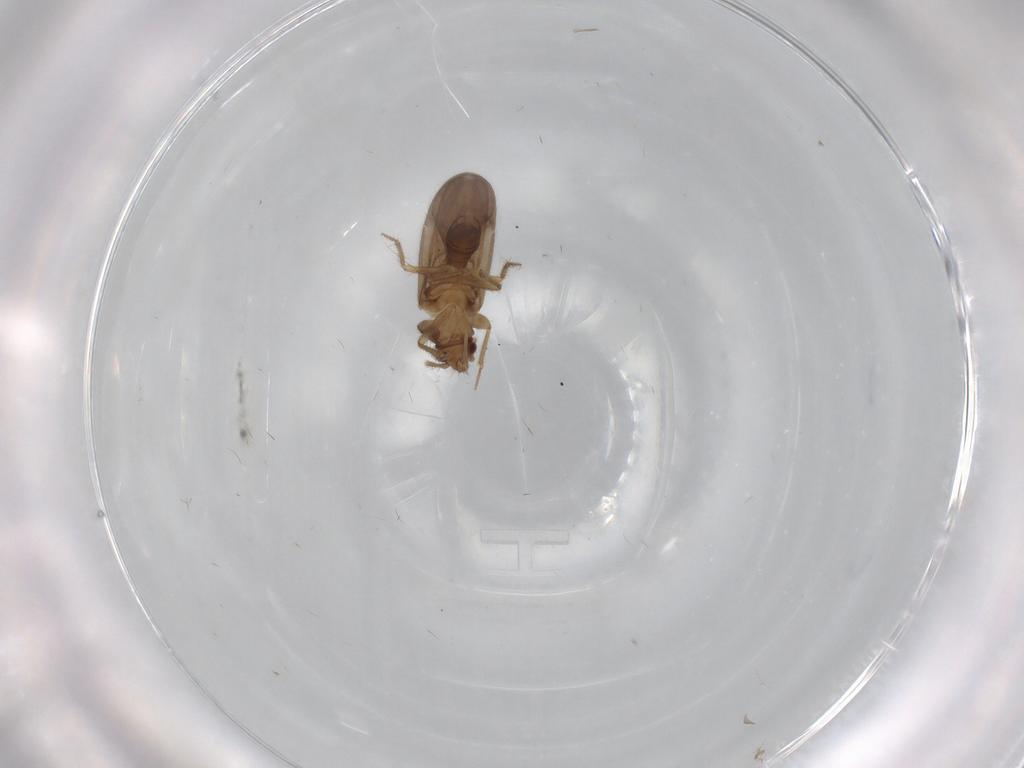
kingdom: Animalia
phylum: Arthropoda
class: Insecta
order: Hemiptera
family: Ceratocombidae
